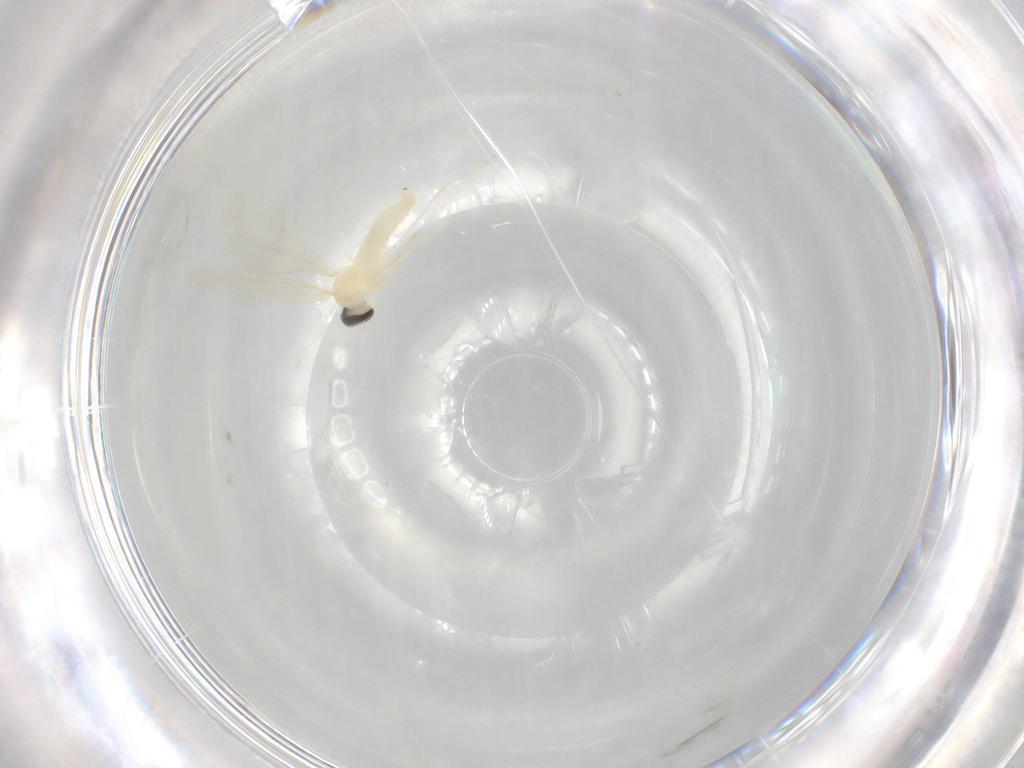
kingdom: Animalia
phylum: Arthropoda
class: Insecta
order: Diptera
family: Cecidomyiidae
